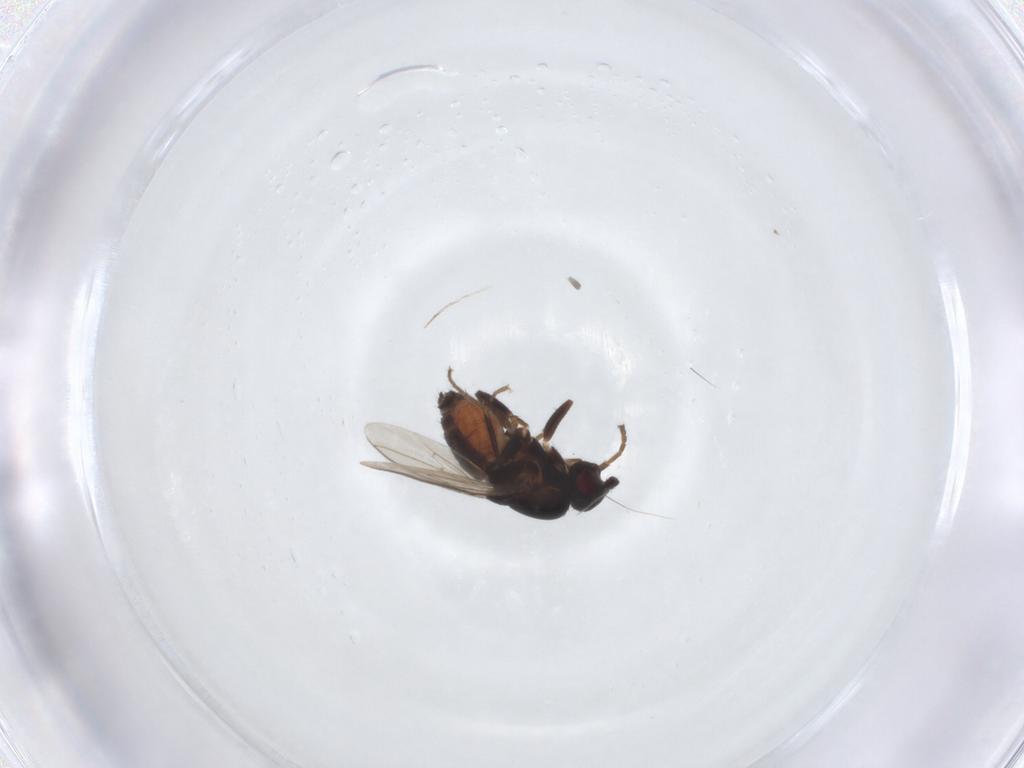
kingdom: Animalia
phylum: Arthropoda
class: Insecta
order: Diptera
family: Sphaeroceridae
